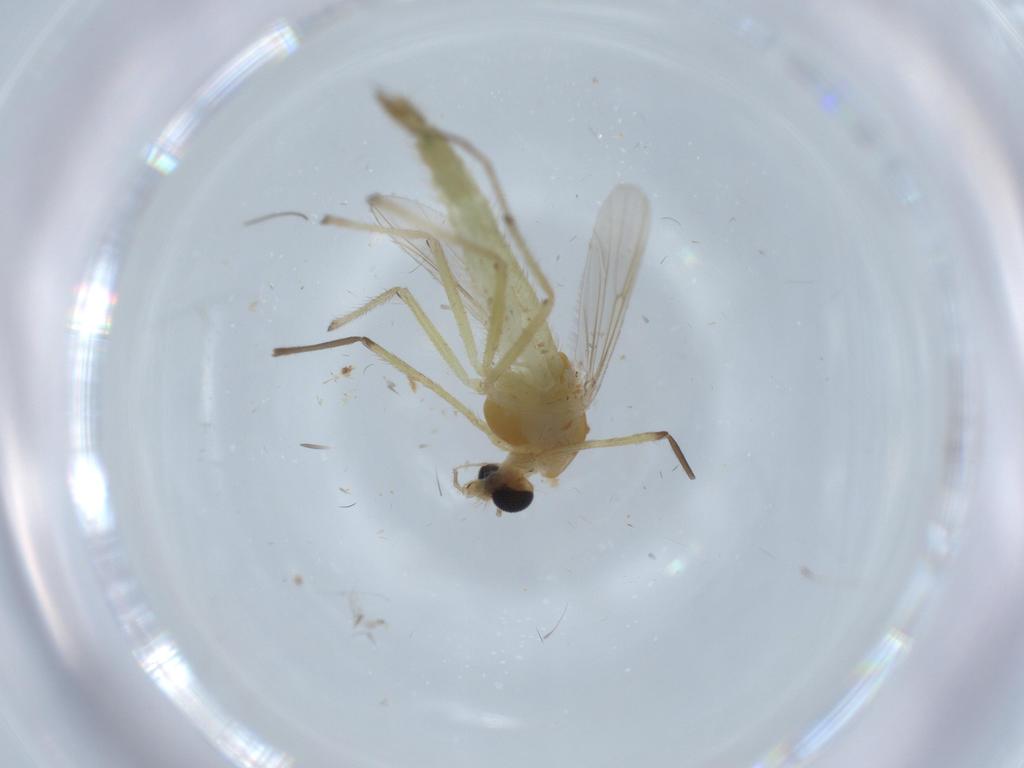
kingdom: Animalia
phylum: Arthropoda
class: Insecta
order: Diptera
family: Chironomidae
